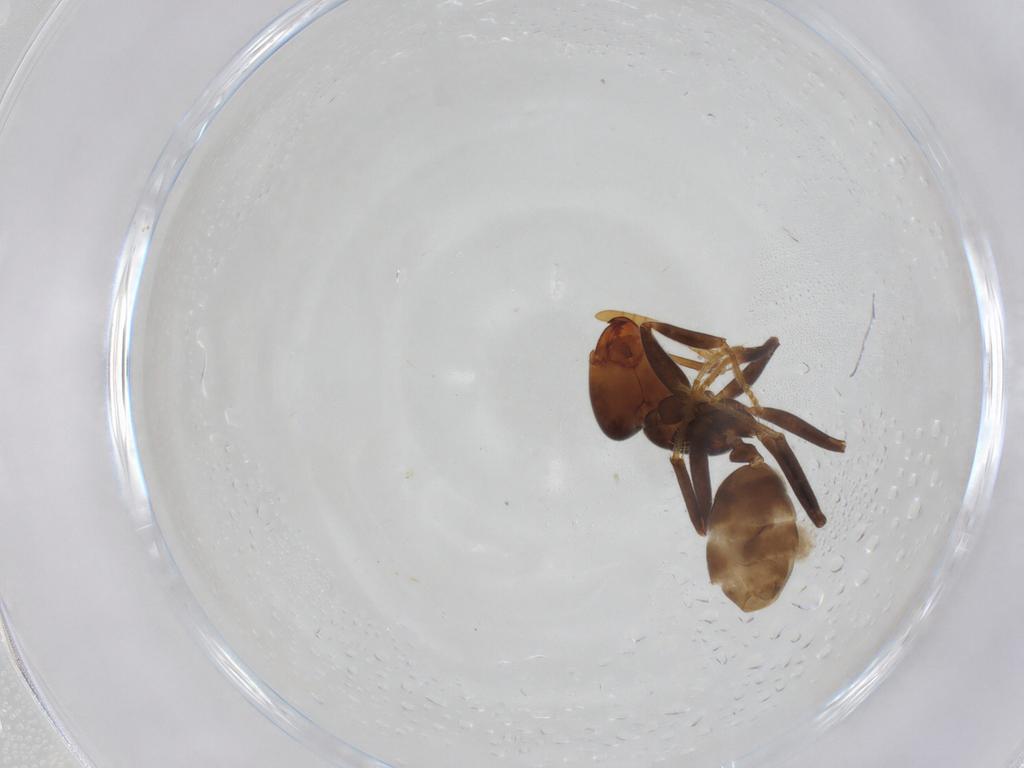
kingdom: Animalia
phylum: Arthropoda
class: Insecta
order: Hymenoptera
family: Formicidae
